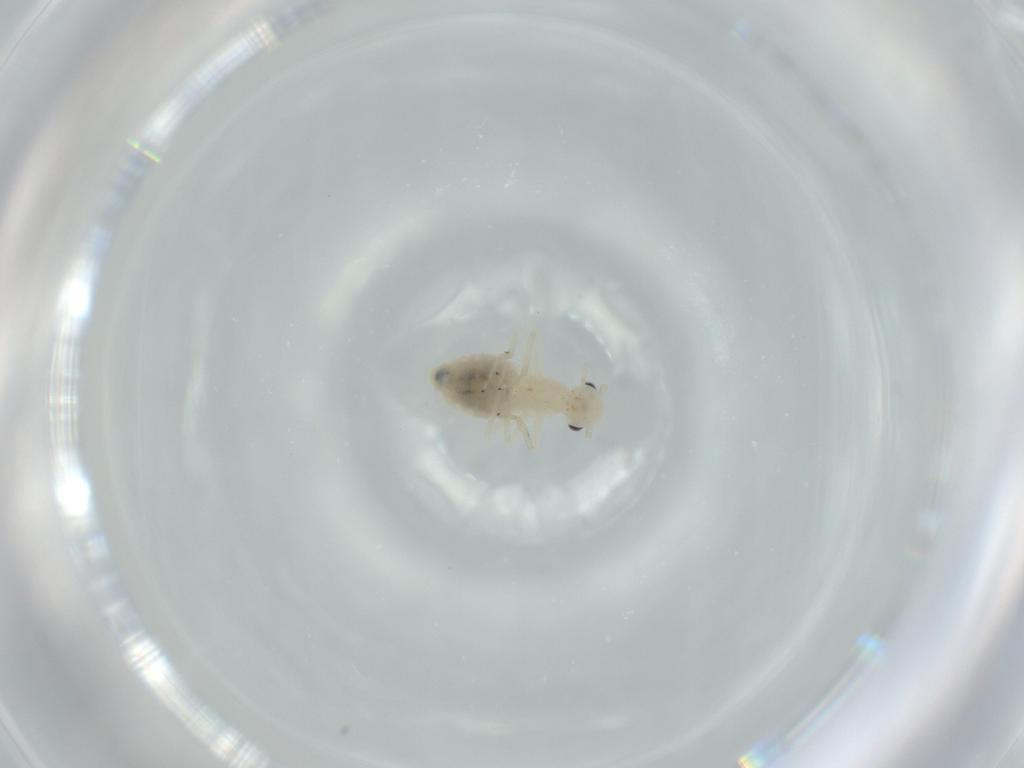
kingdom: Animalia
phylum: Arthropoda
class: Insecta
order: Psocodea
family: Caeciliusidae
